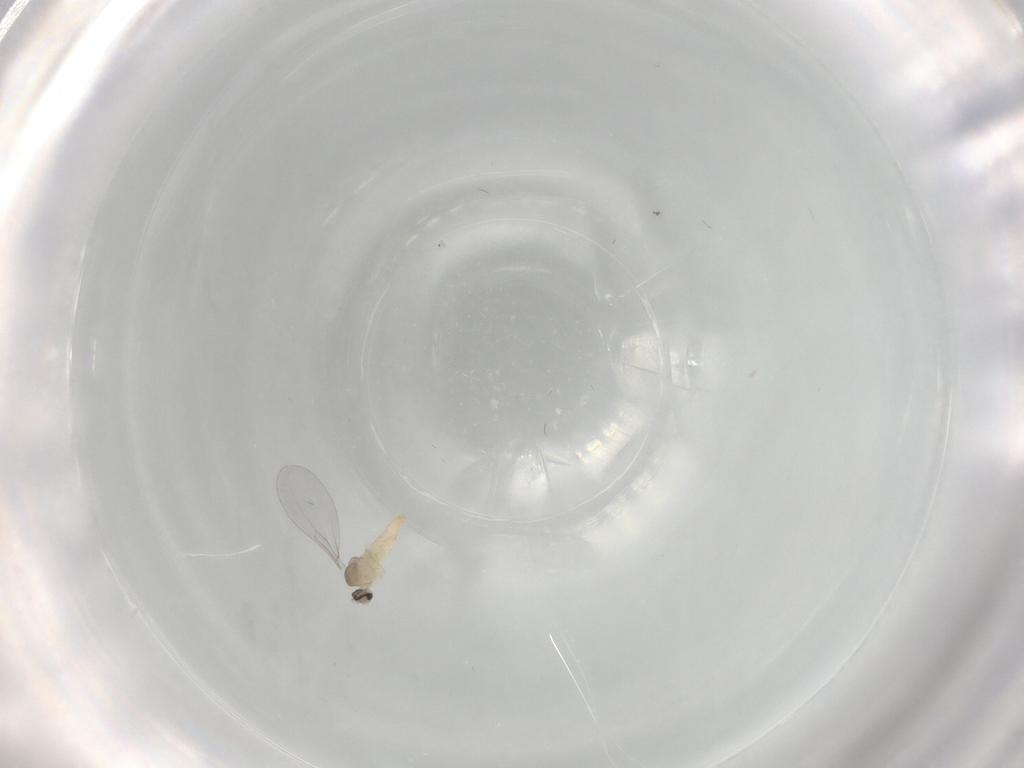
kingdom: Animalia
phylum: Arthropoda
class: Insecta
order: Diptera
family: Cecidomyiidae
